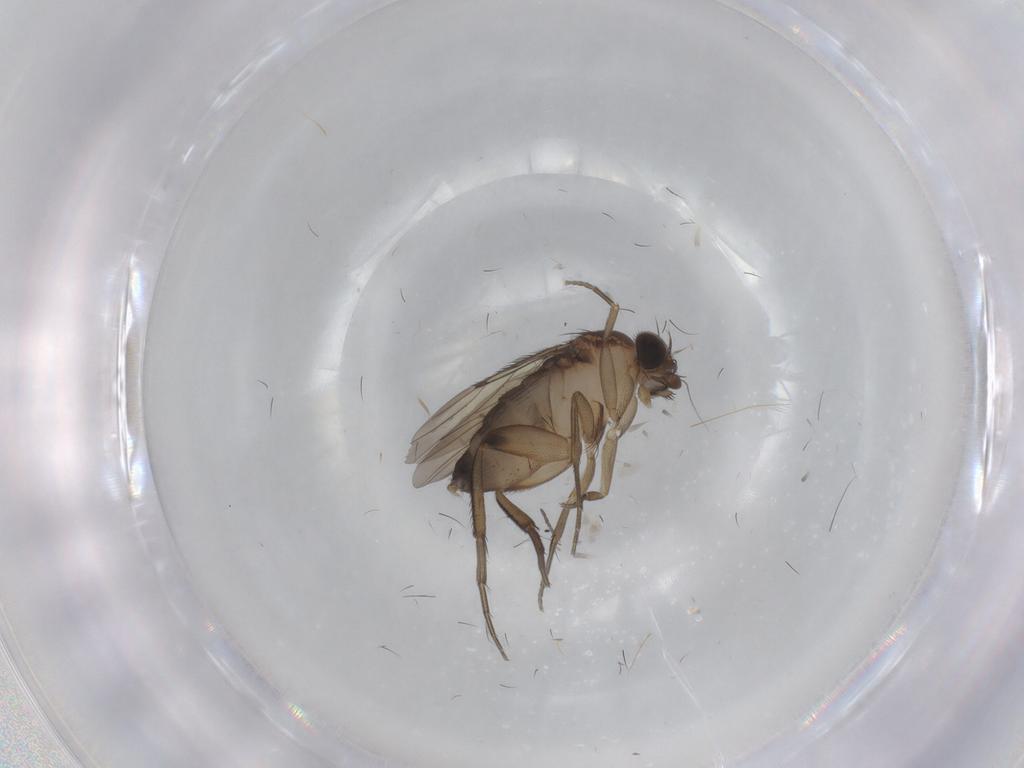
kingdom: Animalia
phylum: Arthropoda
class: Insecta
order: Diptera
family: Phoridae
